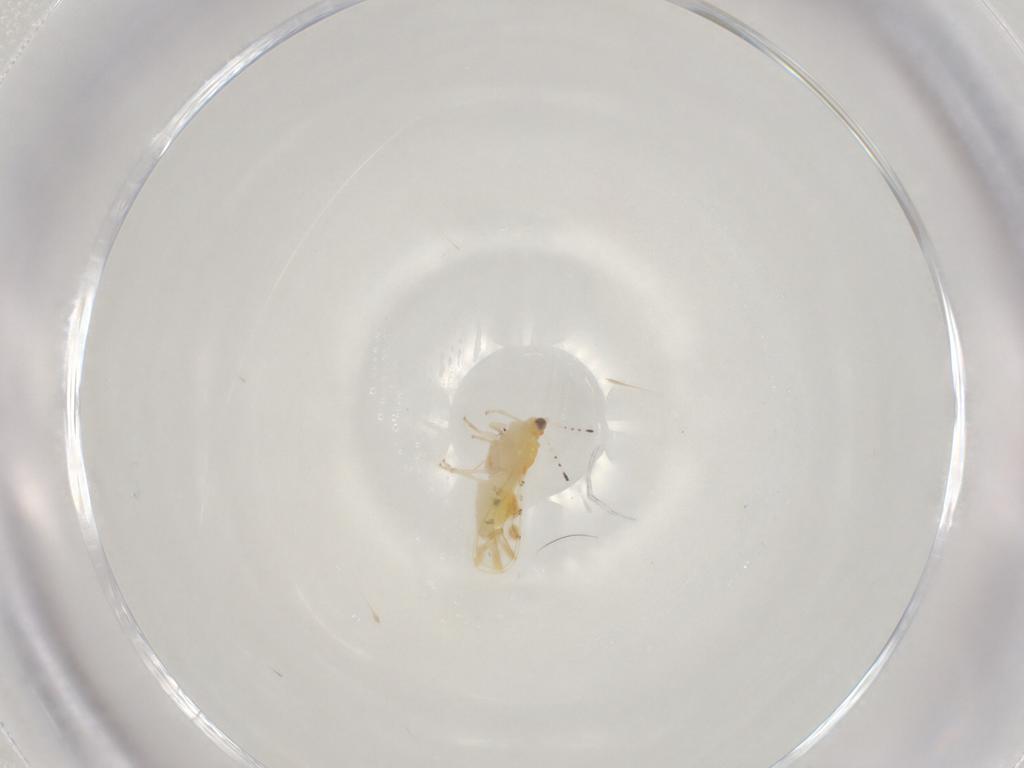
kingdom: Animalia
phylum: Arthropoda
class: Insecta
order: Hemiptera
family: Aphalaridae
